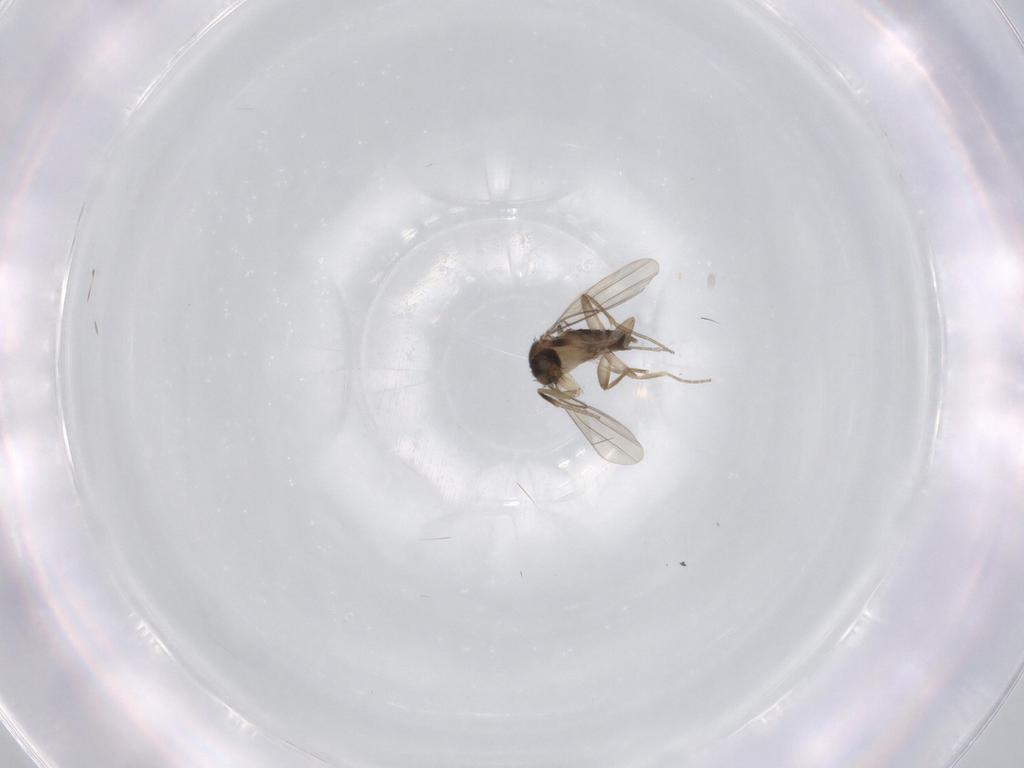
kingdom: Animalia
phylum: Arthropoda
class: Insecta
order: Diptera
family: Phoridae
